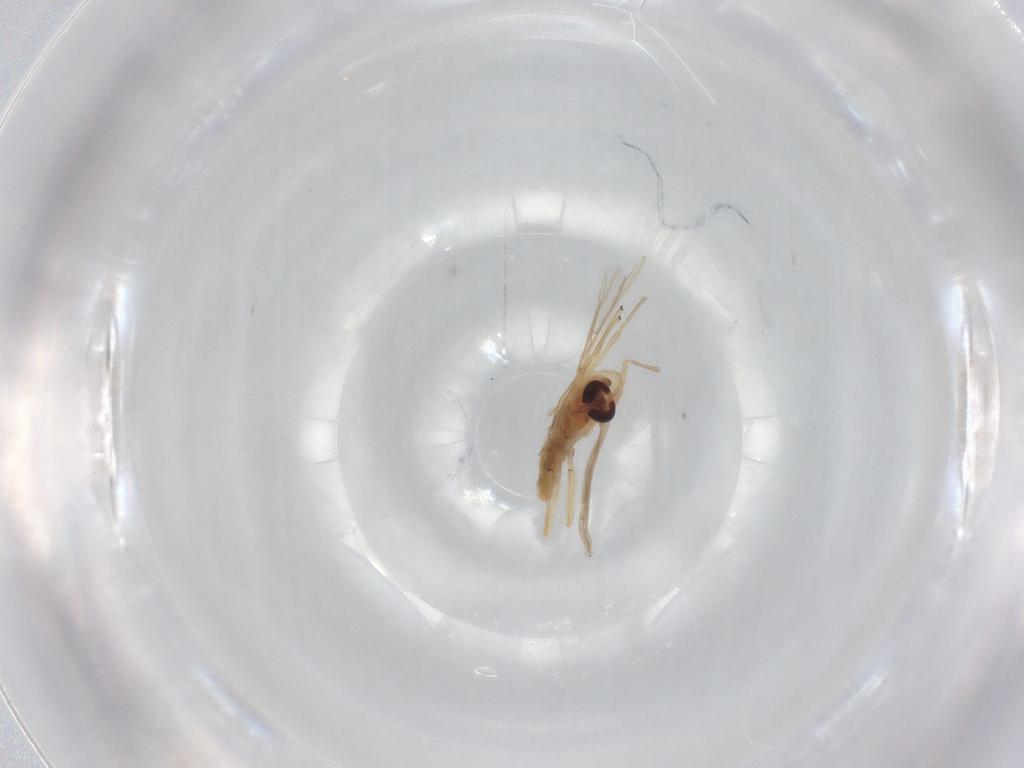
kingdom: Animalia
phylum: Arthropoda
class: Insecta
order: Diptera
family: Chironomidae
